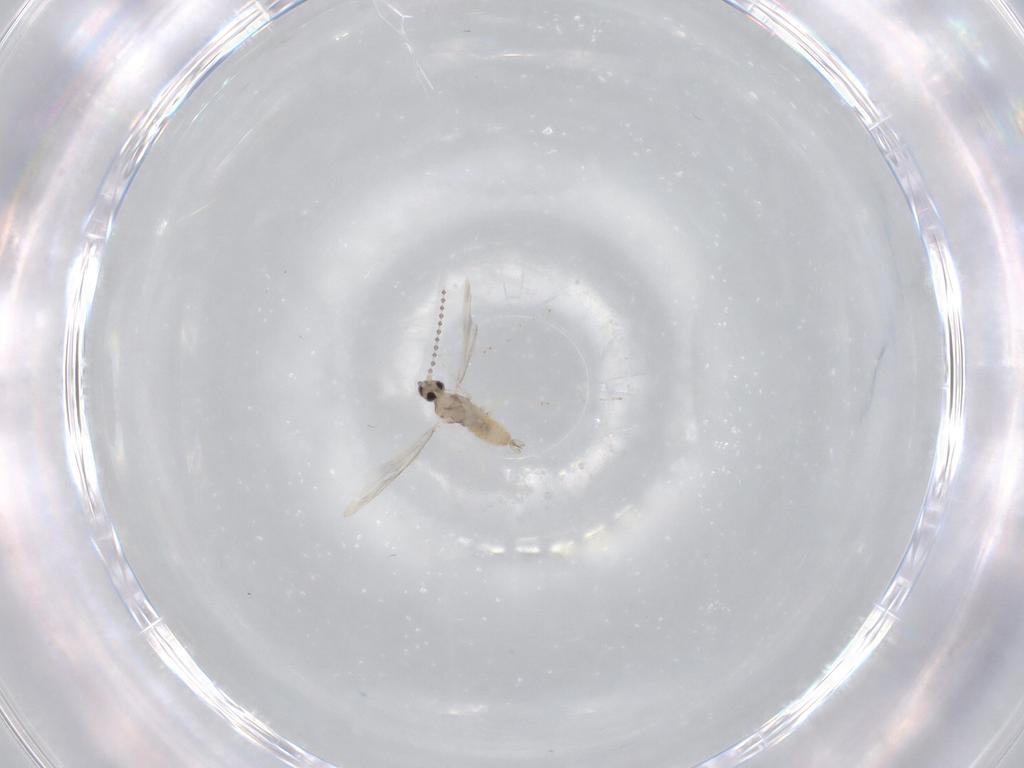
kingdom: Animalia
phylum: Arthropoda
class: Insecta
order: Diptera
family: Cecidomyiidae
